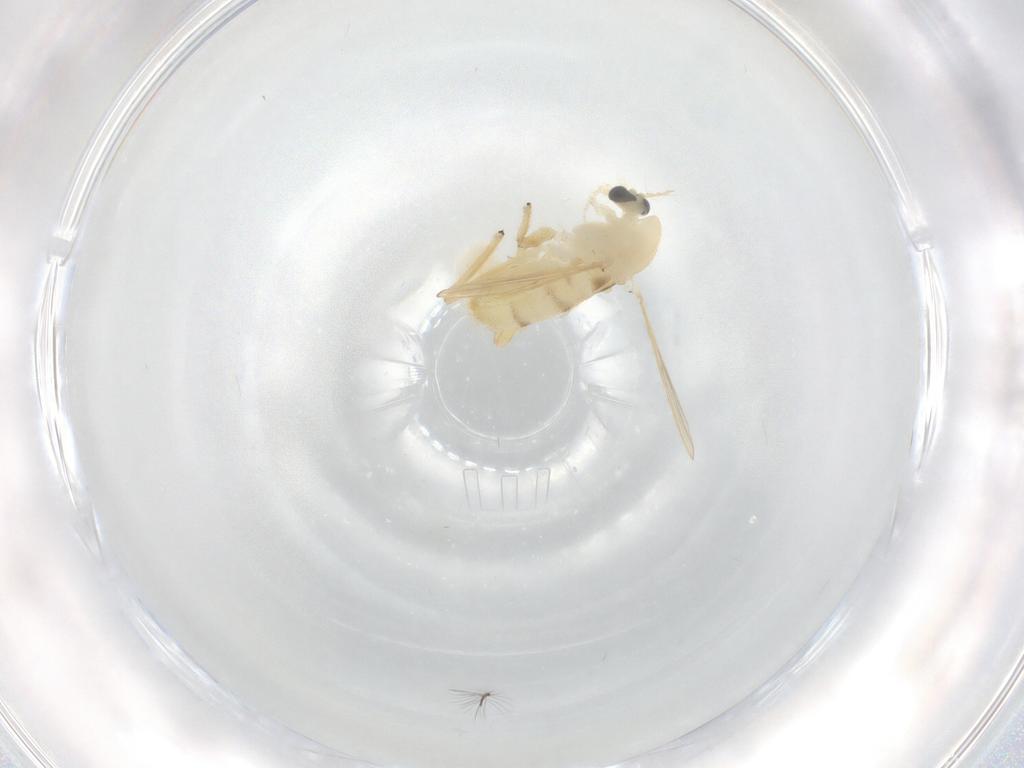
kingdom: Animalia
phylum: Arthropoda
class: Insecta
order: Diptera
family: Chironomidae
